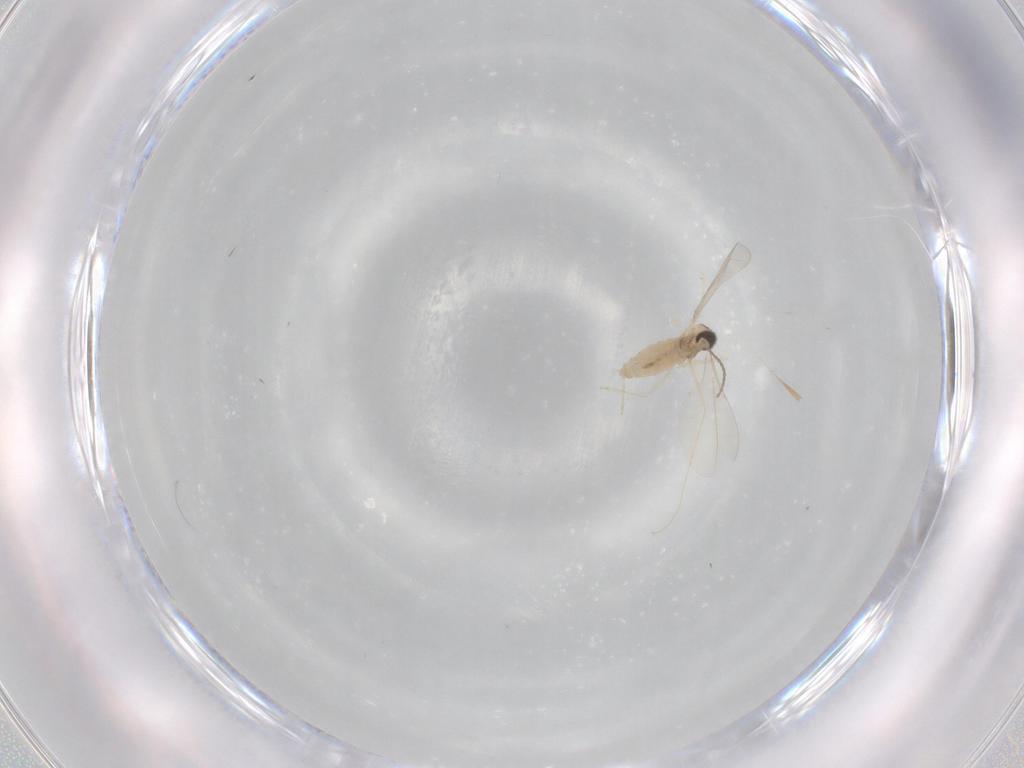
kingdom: Animalia
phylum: Arthropoda
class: Insecta
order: Diptera
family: Cecidomyiidae
